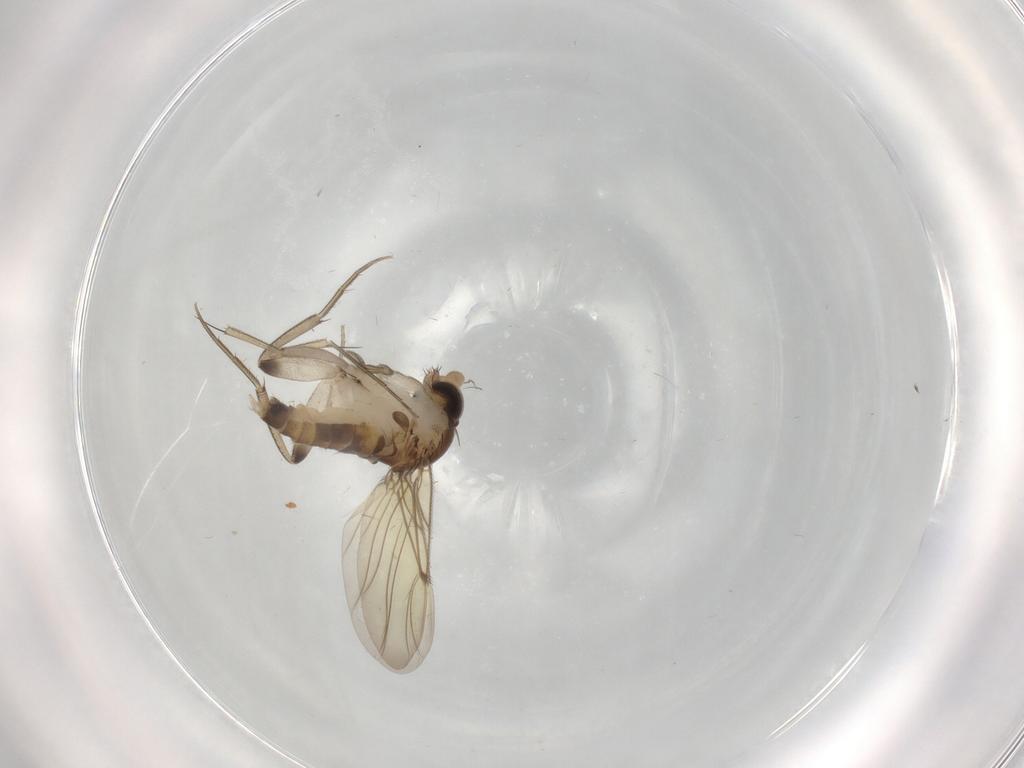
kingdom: Animalia
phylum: Arthropoda
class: Insecta
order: Diptera
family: Phoridae
